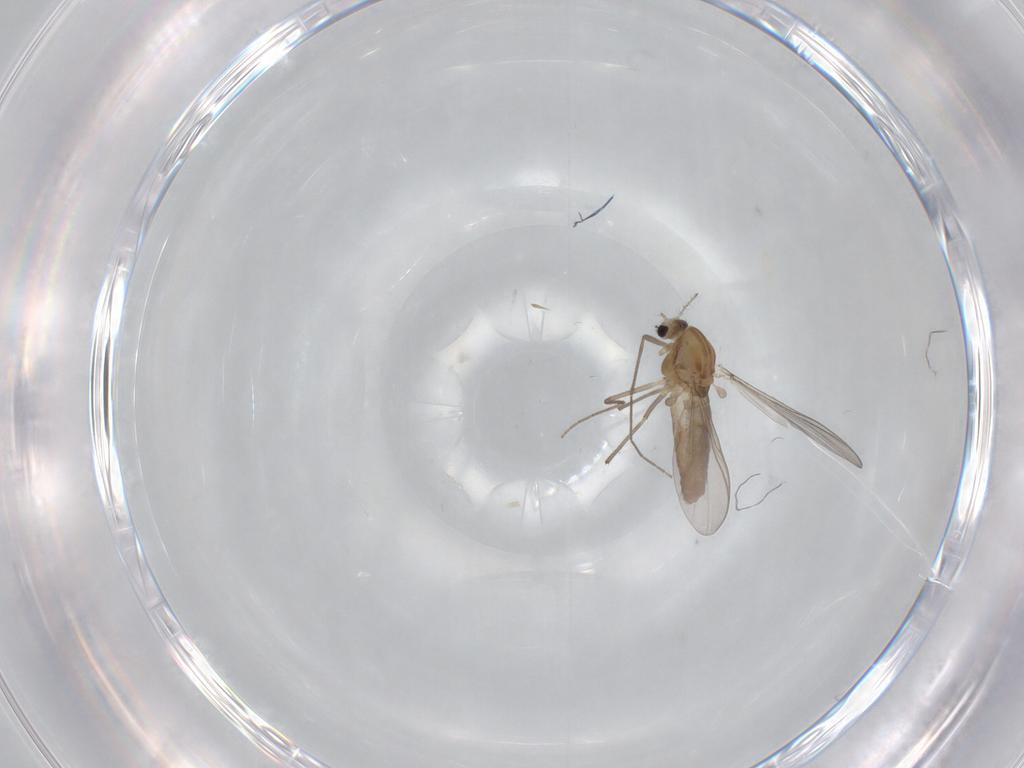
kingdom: Animalia
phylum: Arthropoda
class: Insecta
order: Diptera
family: Chironomidae
